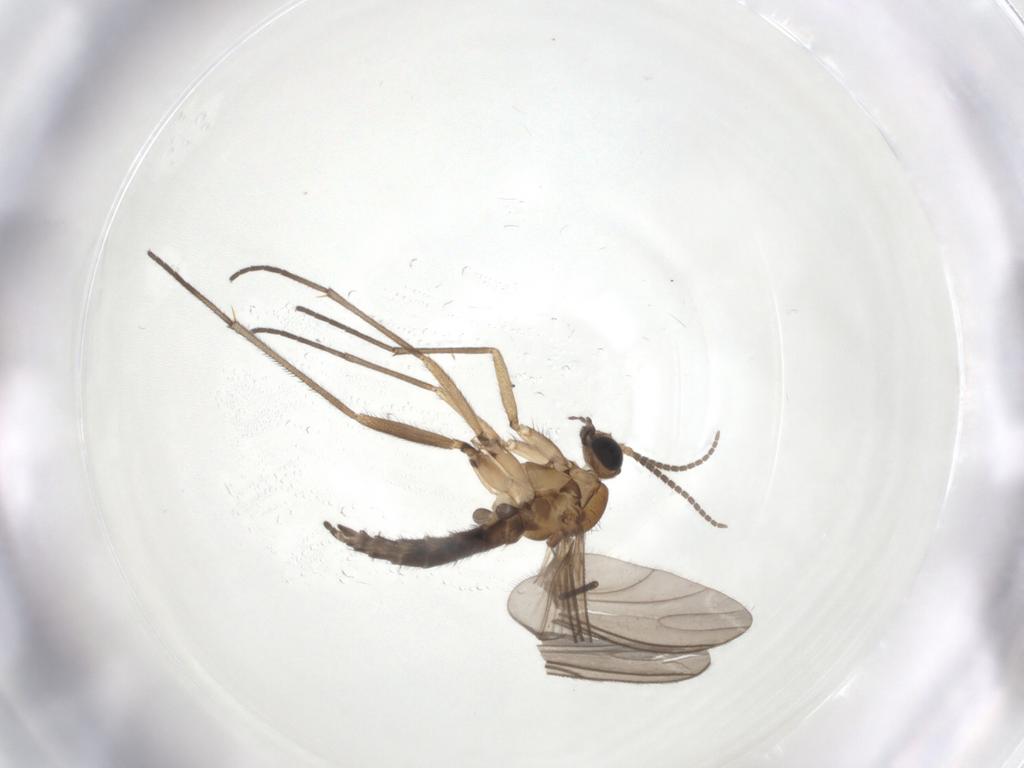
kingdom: Animalia
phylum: Arthropoda
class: Insecta
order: Diptera
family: Sciaridae
